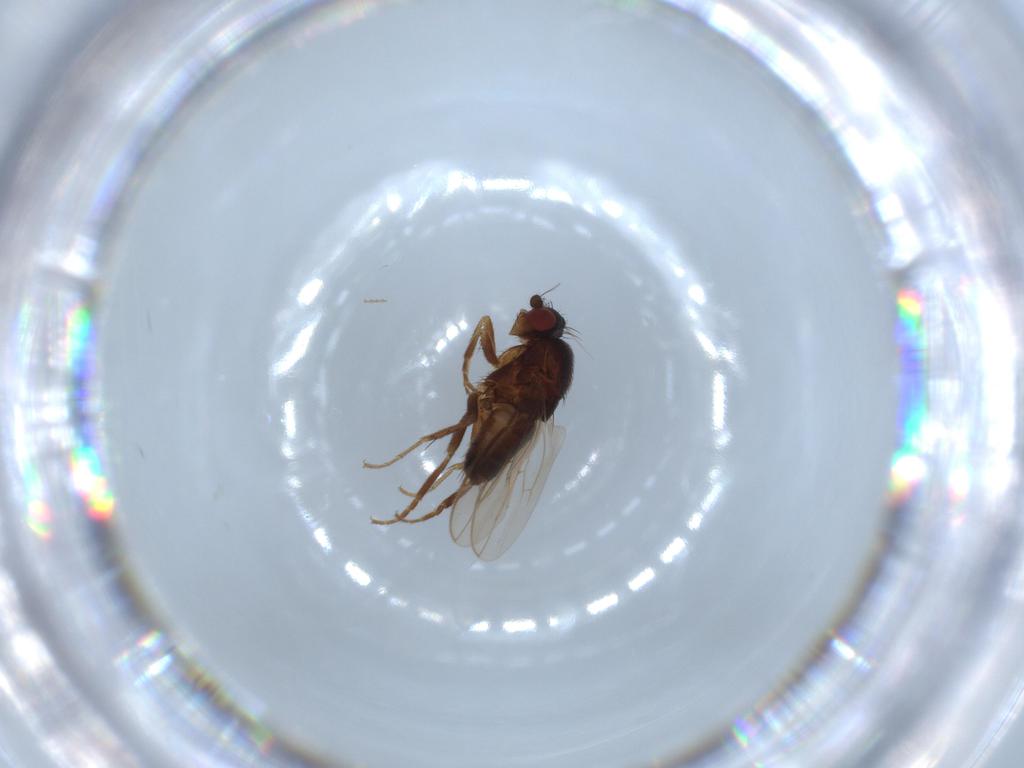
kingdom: Animalia
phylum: Arthropoda
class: Insecta
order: Diptera
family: Sphaeroceridae
